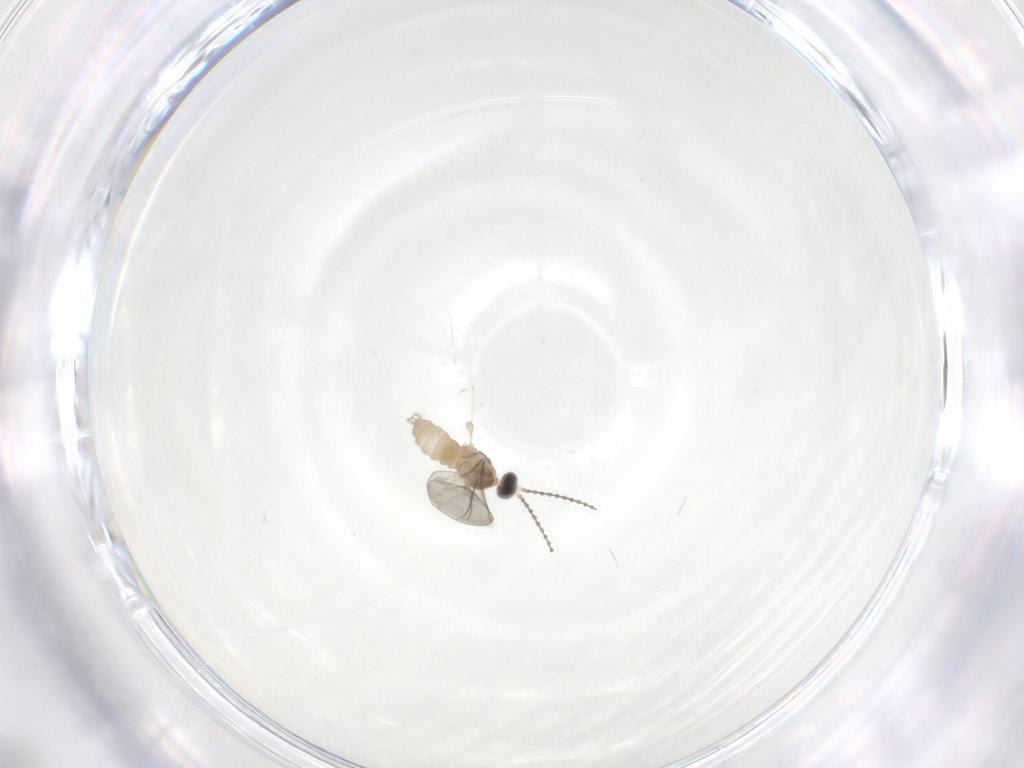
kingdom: Animalia
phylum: Arthropoda
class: Insecta
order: Diptera
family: Cecidomyiidae
